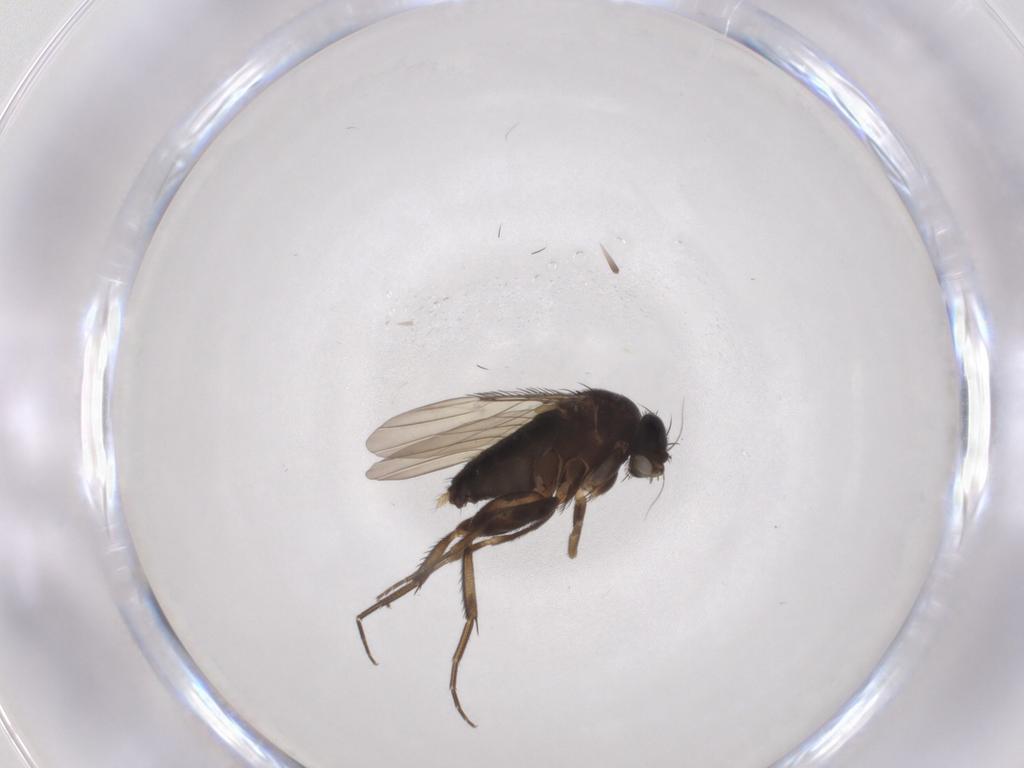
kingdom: Animalia
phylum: Arthropoda
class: Insecta
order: Diptera
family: Phoridae
